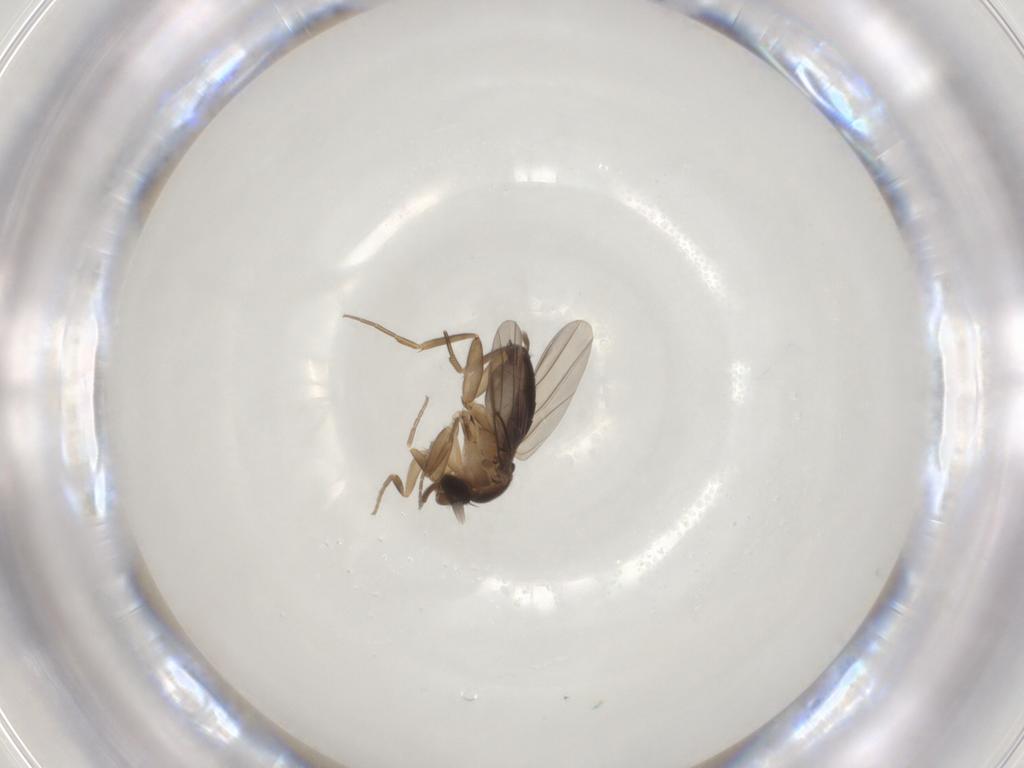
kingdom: Animalia
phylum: Arthropoda
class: Insecta
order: Diptera
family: Phoridae
